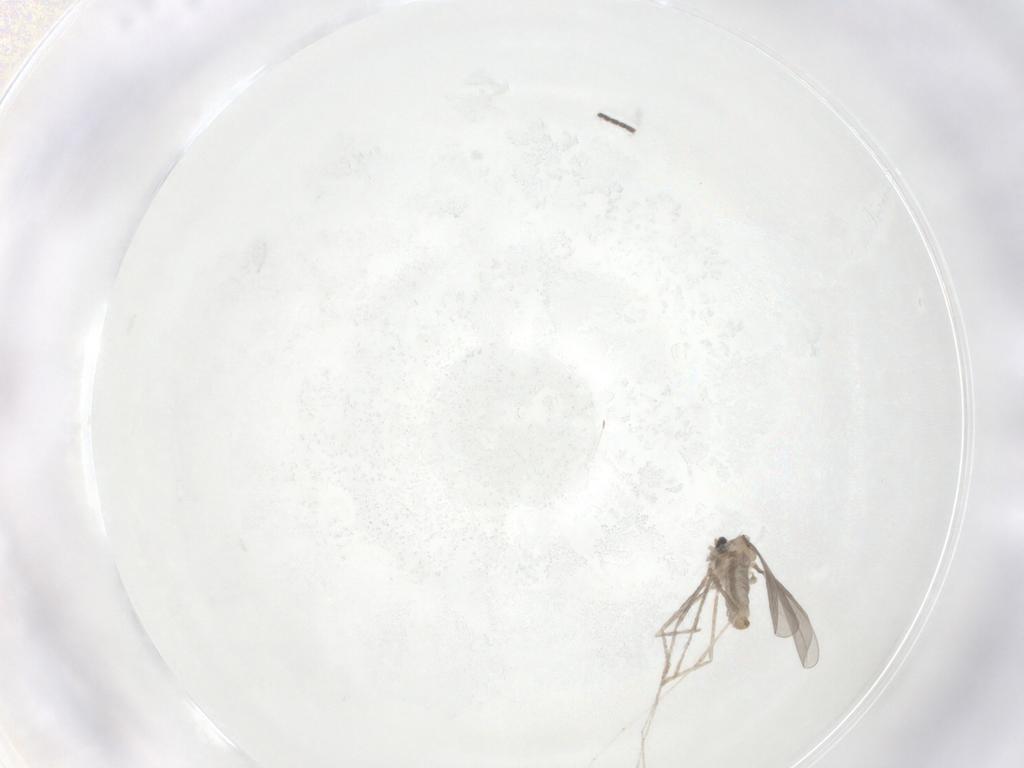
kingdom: Animalia
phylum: Arthropoda
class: Insecta
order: Diptera
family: Cecidomyiidae
